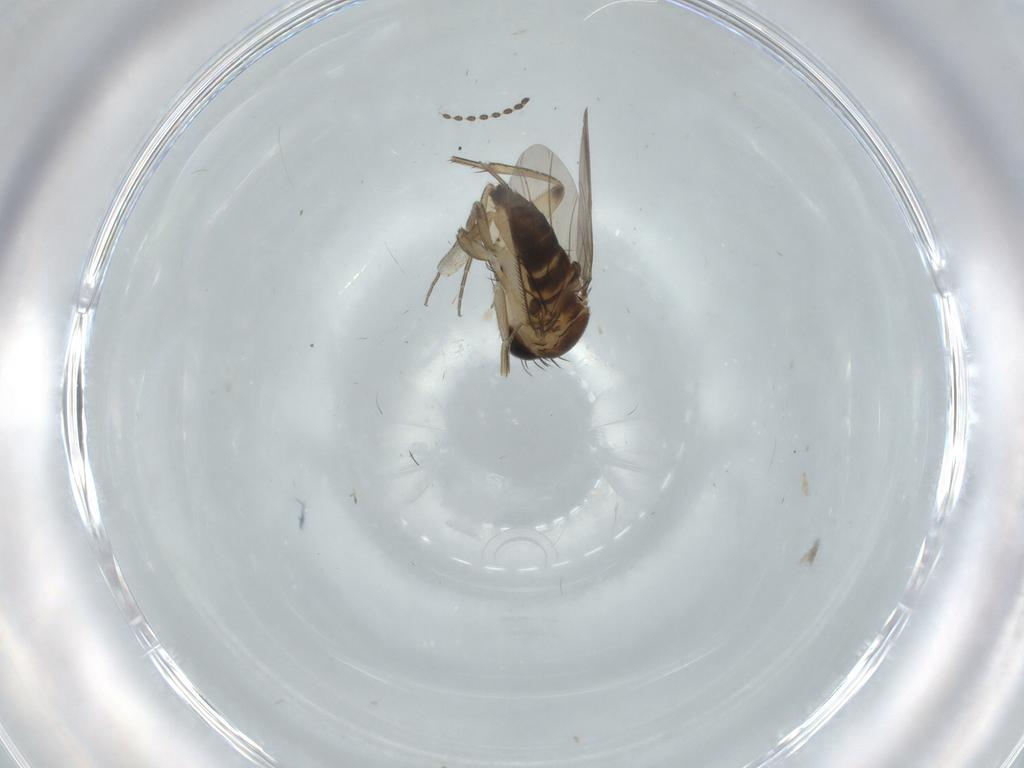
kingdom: Animalia
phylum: Arthropoda
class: Insecta
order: Diptera
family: Phoridae
